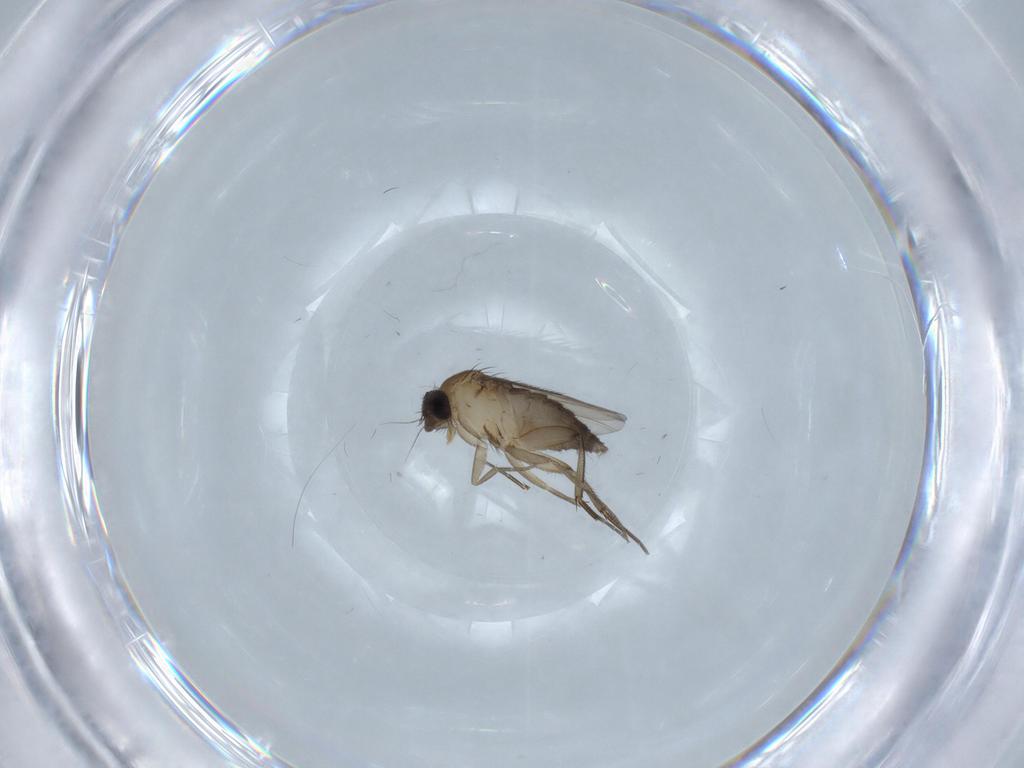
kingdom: Animalia
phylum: Arthropoda
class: Insecta
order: Diptera
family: Phoridae
